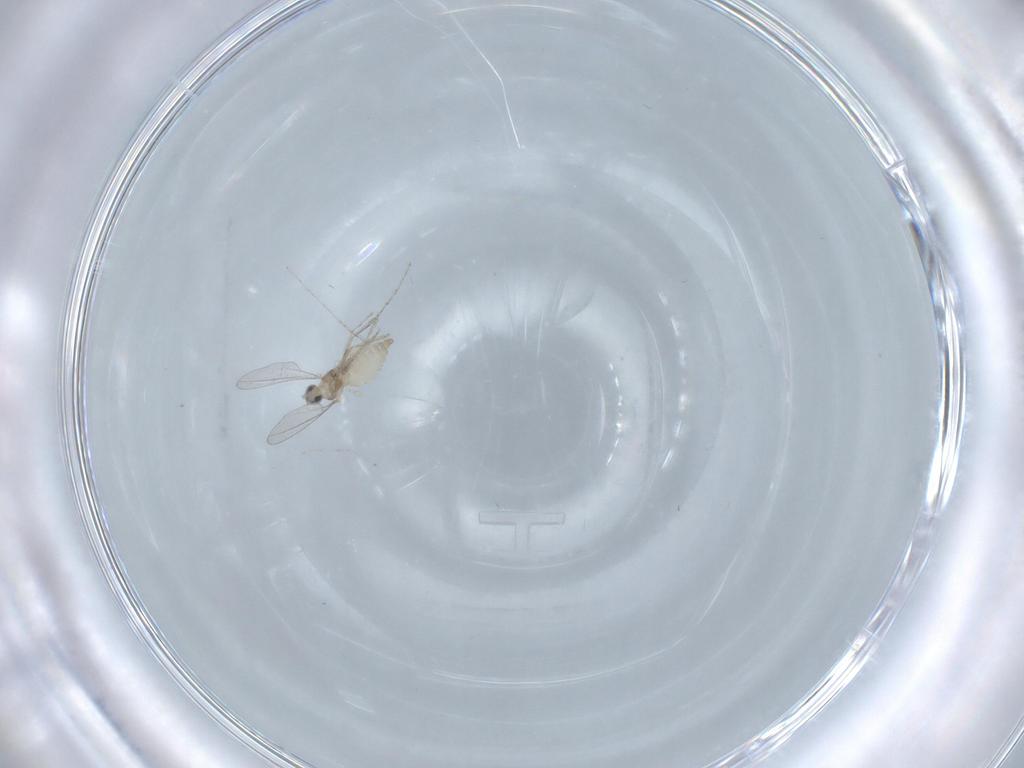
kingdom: Animalia
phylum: Arthropoda
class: Insecta
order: Diptera
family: Cecidomyiidae
